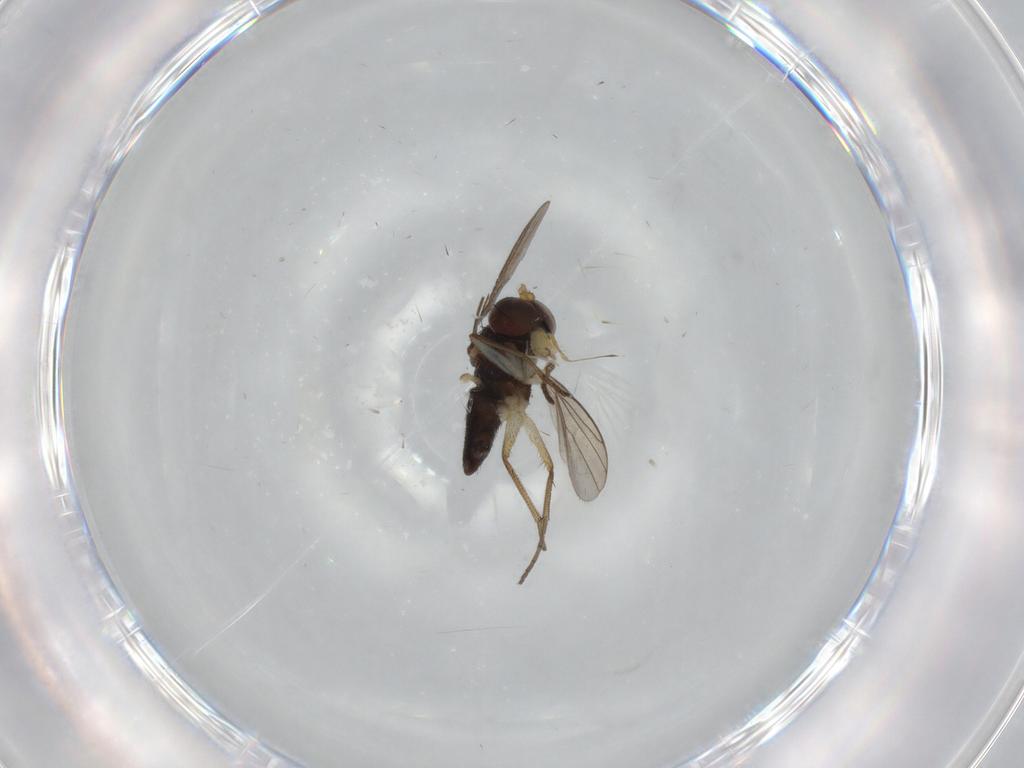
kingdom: Animalia
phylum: Arthropoda
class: Insecta
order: Diptera
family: Dolichopodidae
